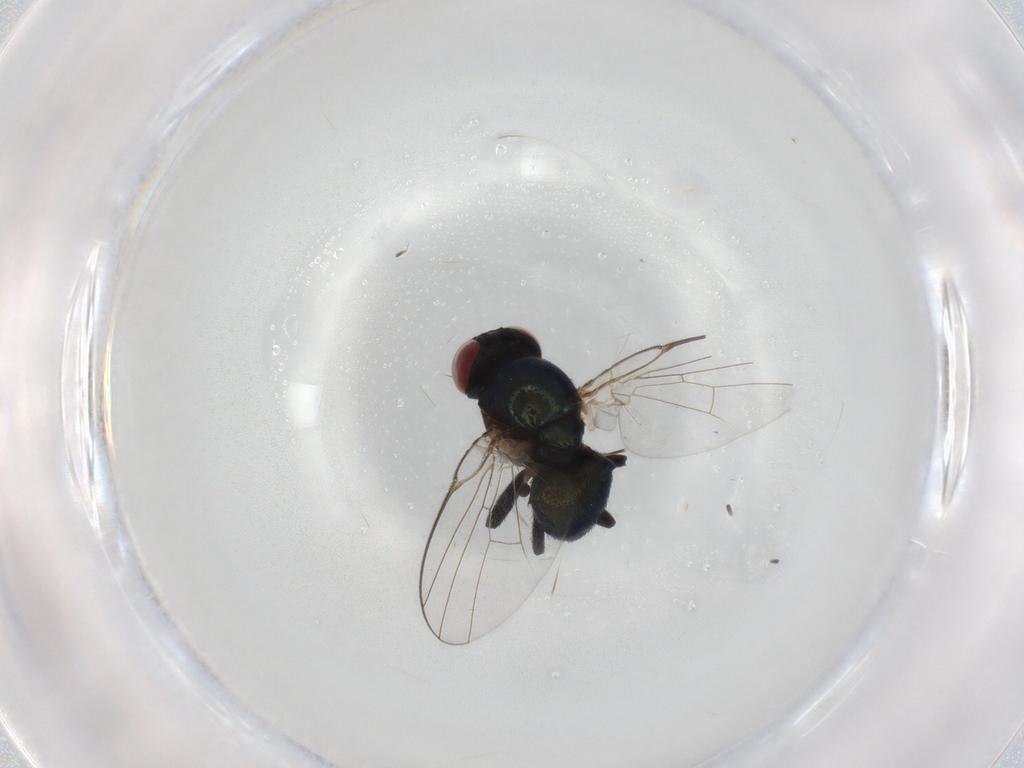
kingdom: Animalia
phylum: Arthropoda
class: Insecta
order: Diptera
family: Agromyzidae
